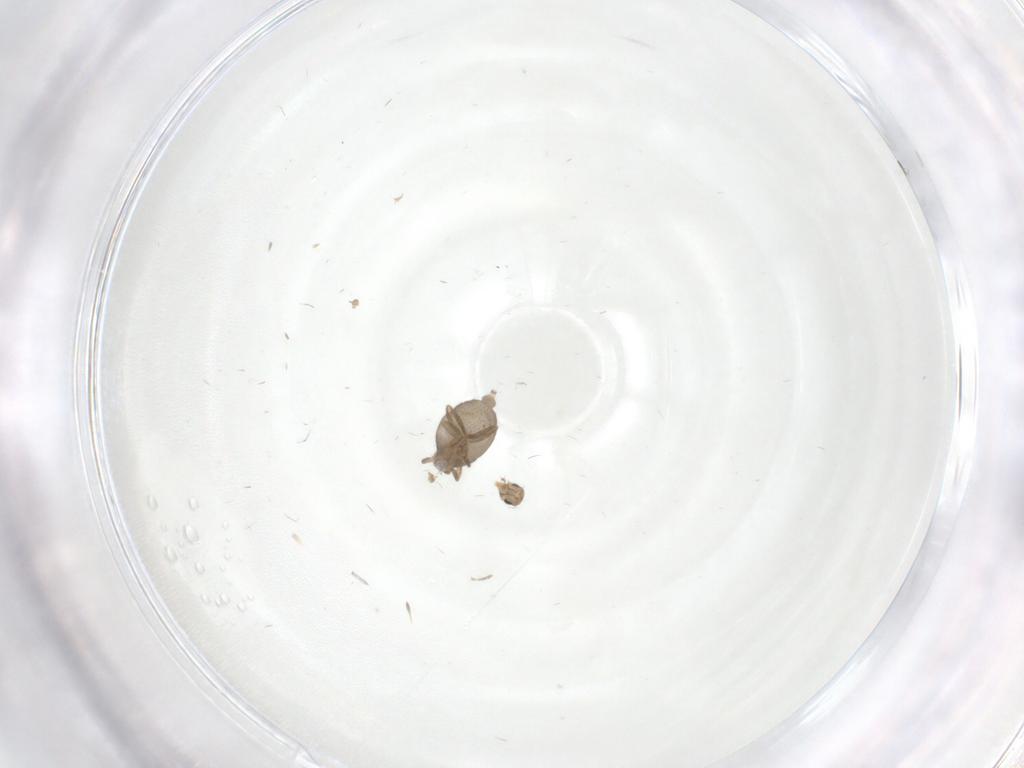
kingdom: Animalia
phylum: Arthropoda
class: Insecta
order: Diptera
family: Phoridae
